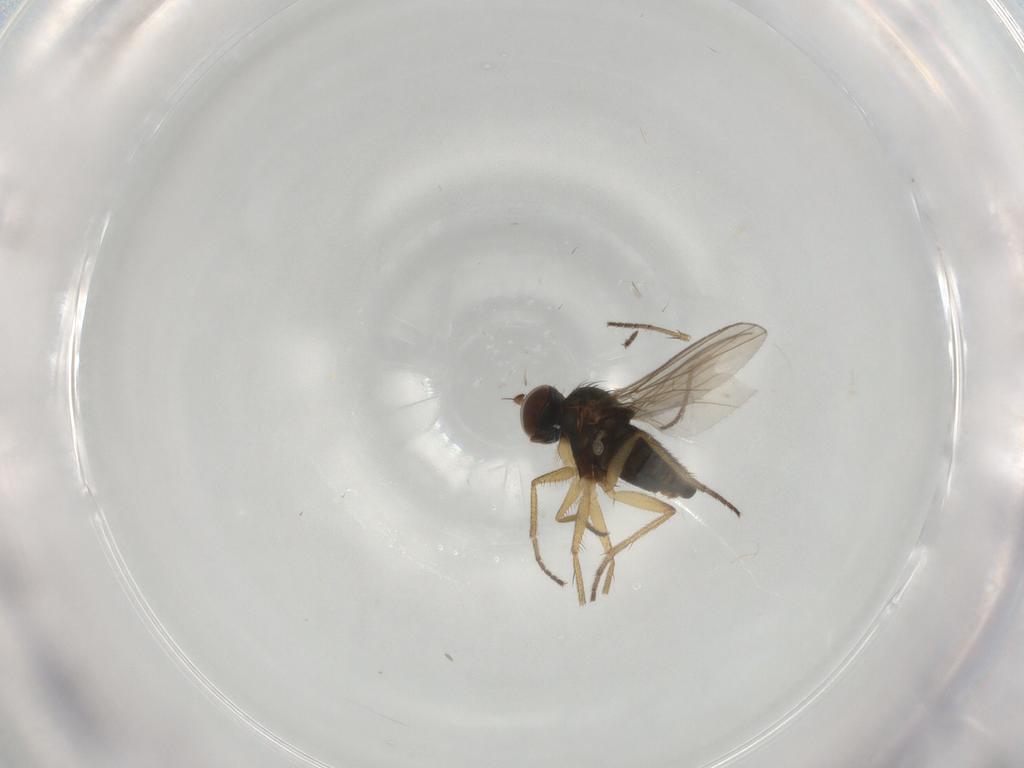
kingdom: Animalia
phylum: Arthropoda
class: Insecta
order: Diptera
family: Dolichopodidae
